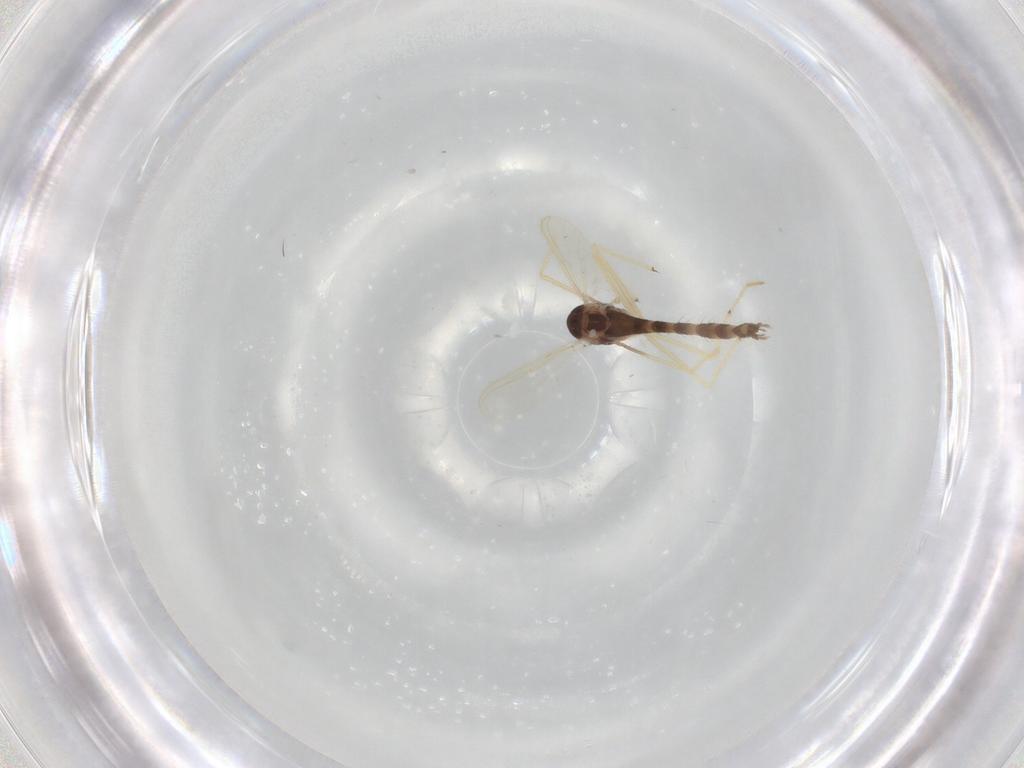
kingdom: Animalia
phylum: Arthropoda
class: Insecta
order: Diptera
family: Chironomidae
